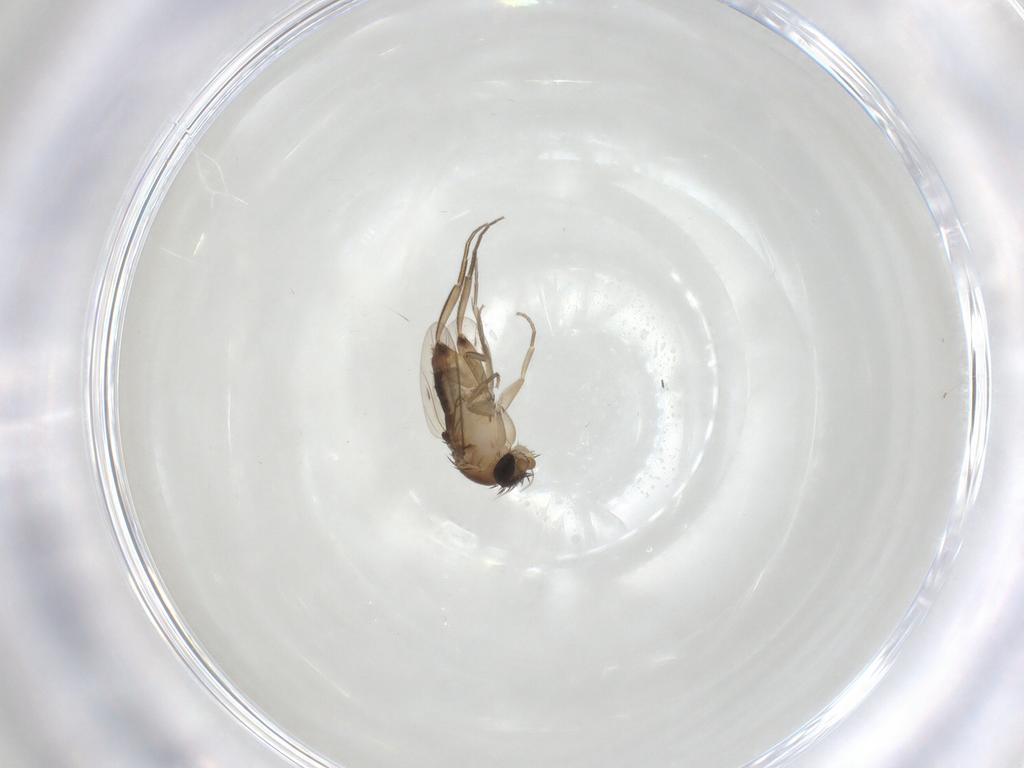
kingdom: Animalia
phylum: Arthropoda
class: Insecta
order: Diptera
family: Phoridae
